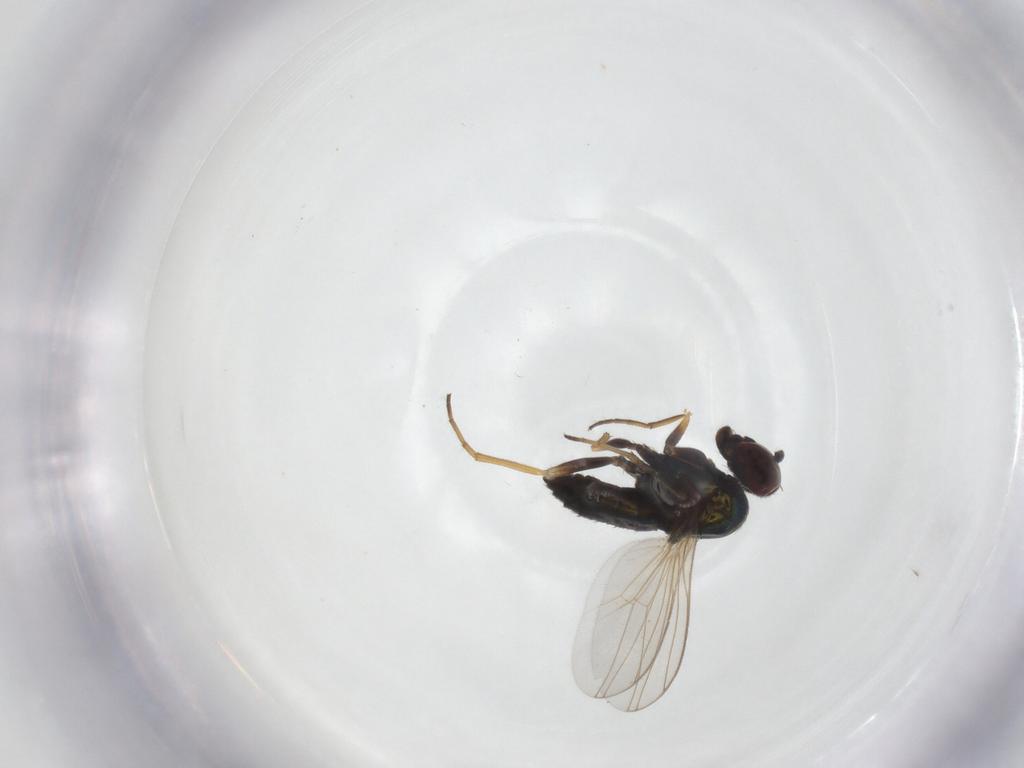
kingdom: Animalia
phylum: Arthropoda
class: Insecta
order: Diptera
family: Dolichopodidae
